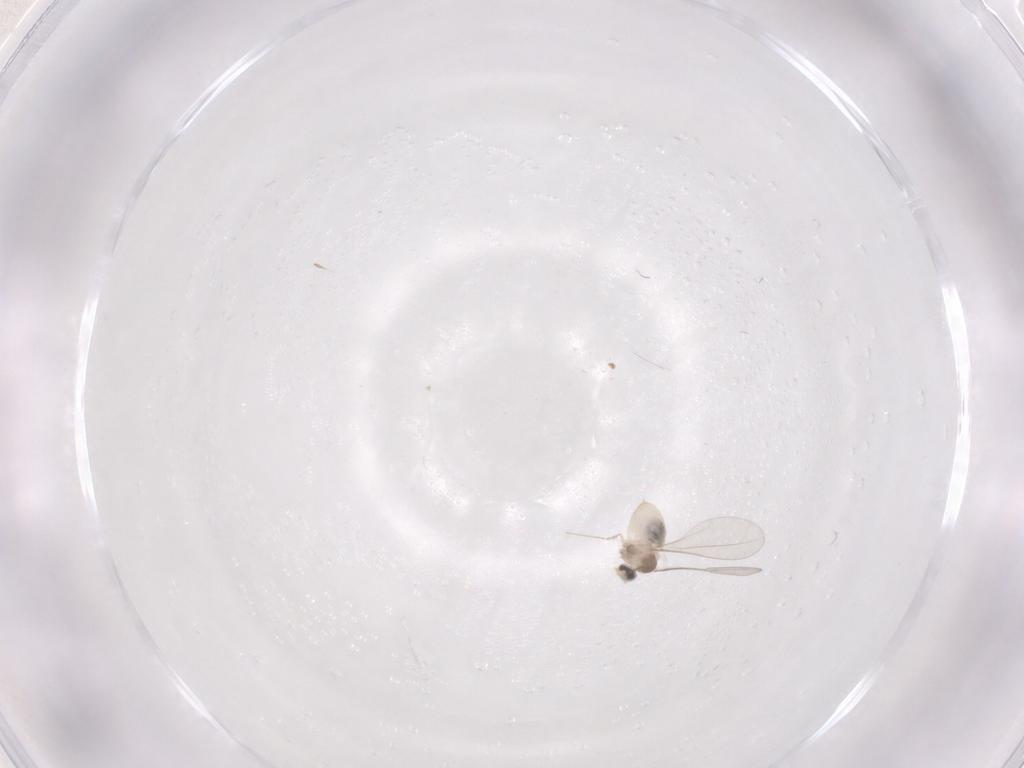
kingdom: Animalia
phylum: Arthropoda
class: Insecta
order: Diptera
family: Cecidomyiidae
